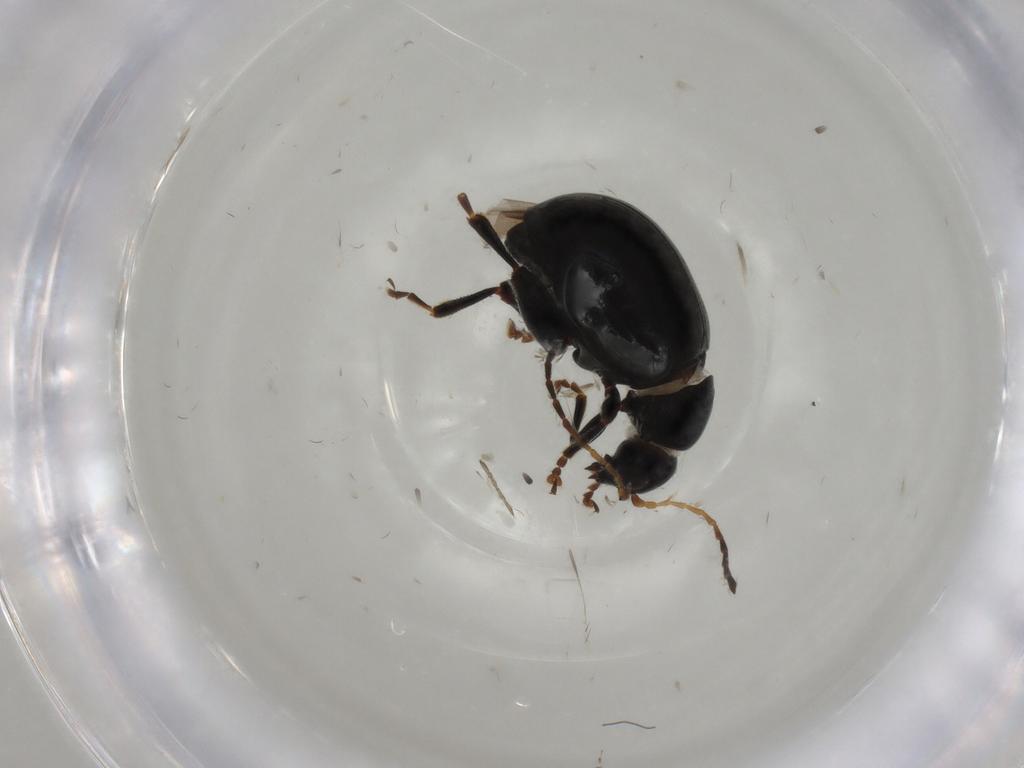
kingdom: Animalia
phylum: Arthropoda
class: Insecta
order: Coleoptera
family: Chrysomelidae
